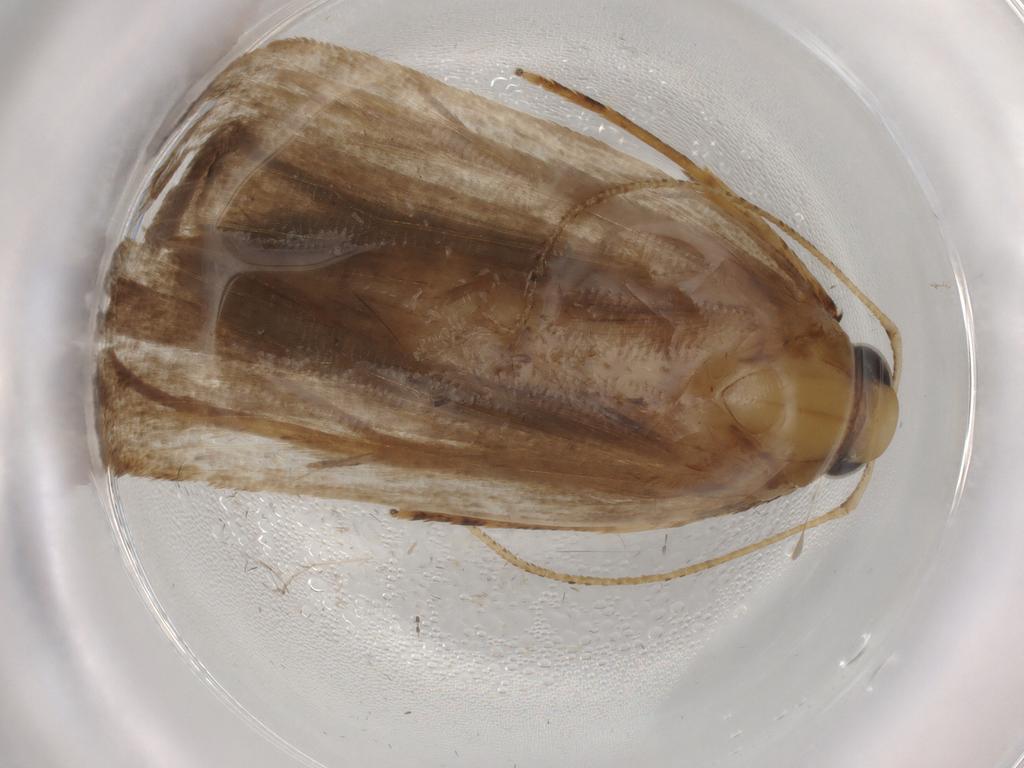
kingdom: Animalia
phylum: Arthropoda
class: Insecta
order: Lepidoptera
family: Autostichidae
